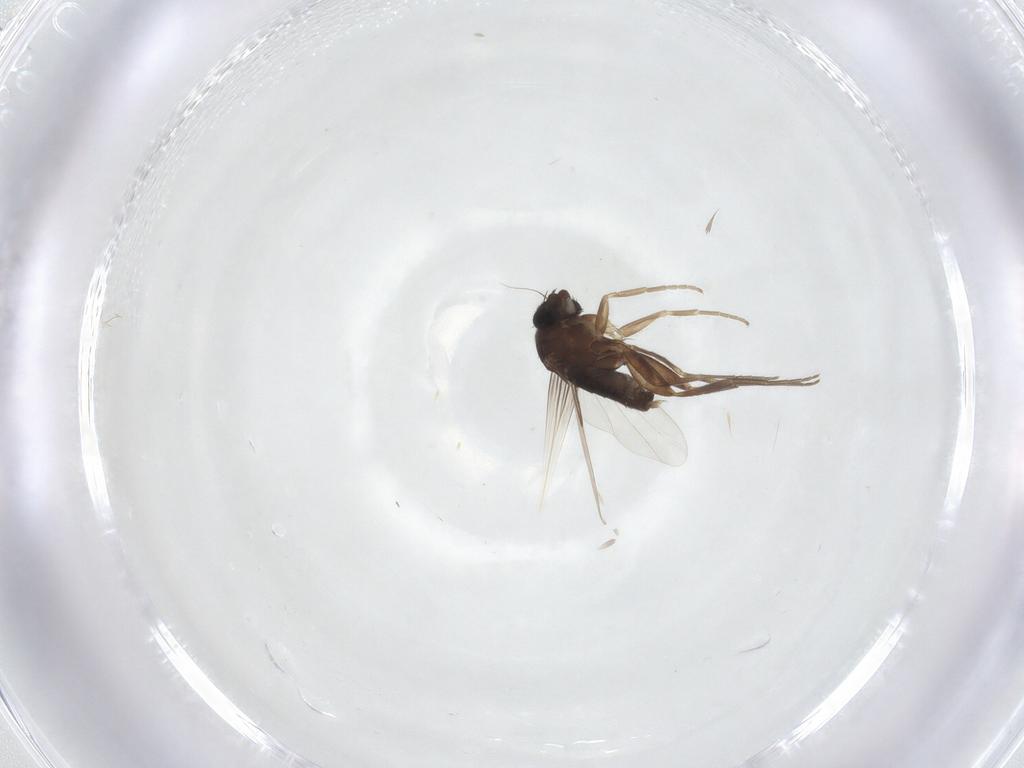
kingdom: Animalia
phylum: Arthropoda
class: Insecta
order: Diptera
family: Phoridae
